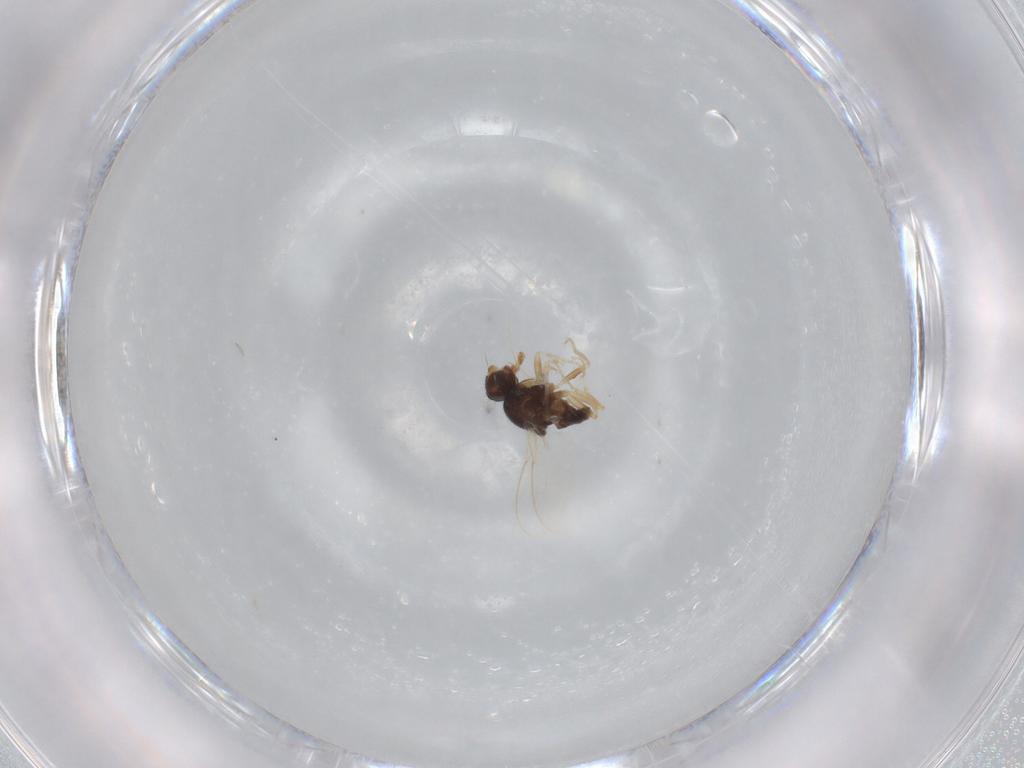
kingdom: Animalia
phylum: Arthropoda
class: Insecta
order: Diptera
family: Chloropidae
